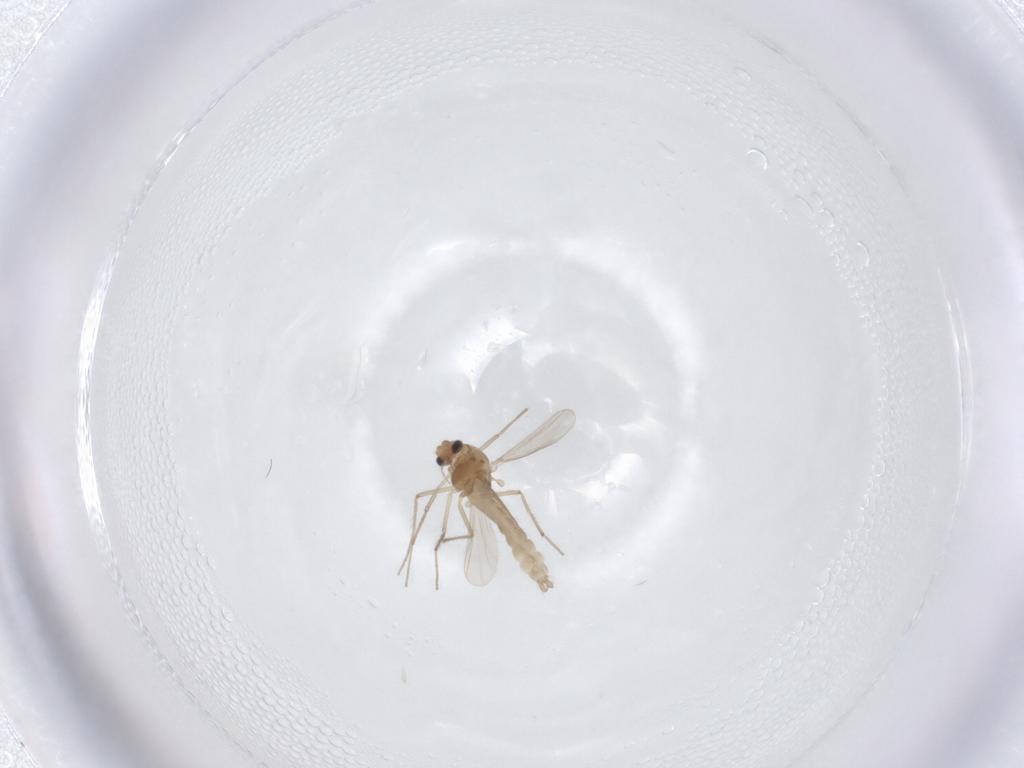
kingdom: Animalia
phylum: Arthropoda
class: Insecta
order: Diptera
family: Chironomidae
